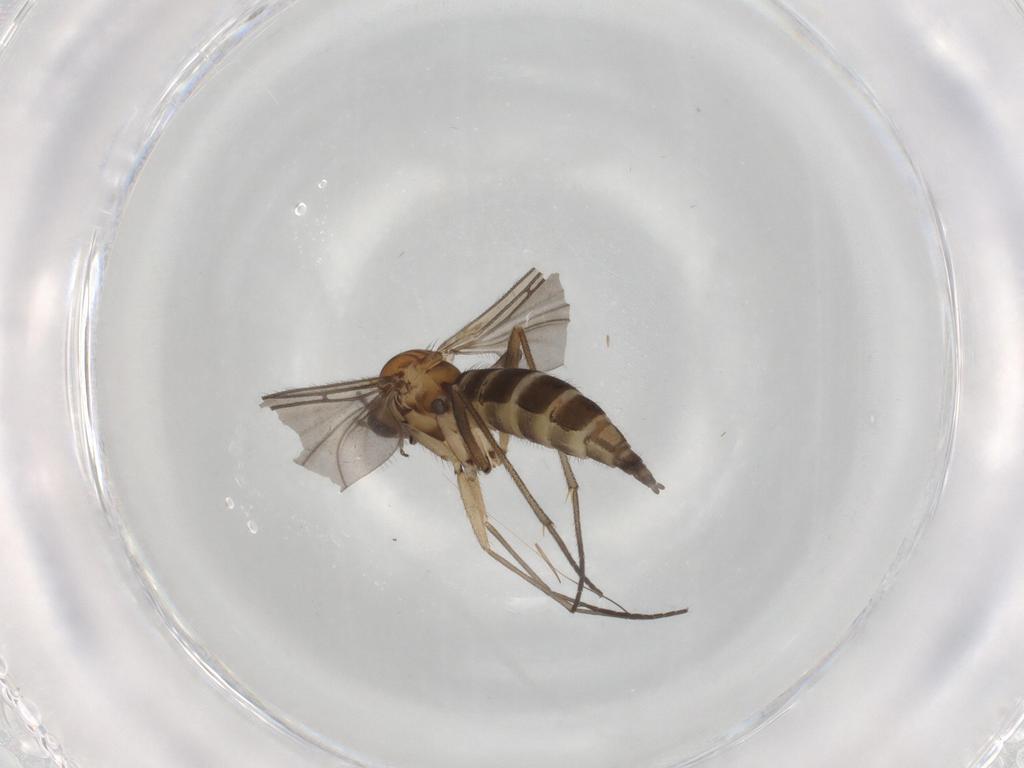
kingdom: Animalia
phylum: Arthropoda
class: Insecta
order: Diptera
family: Sciaridae
